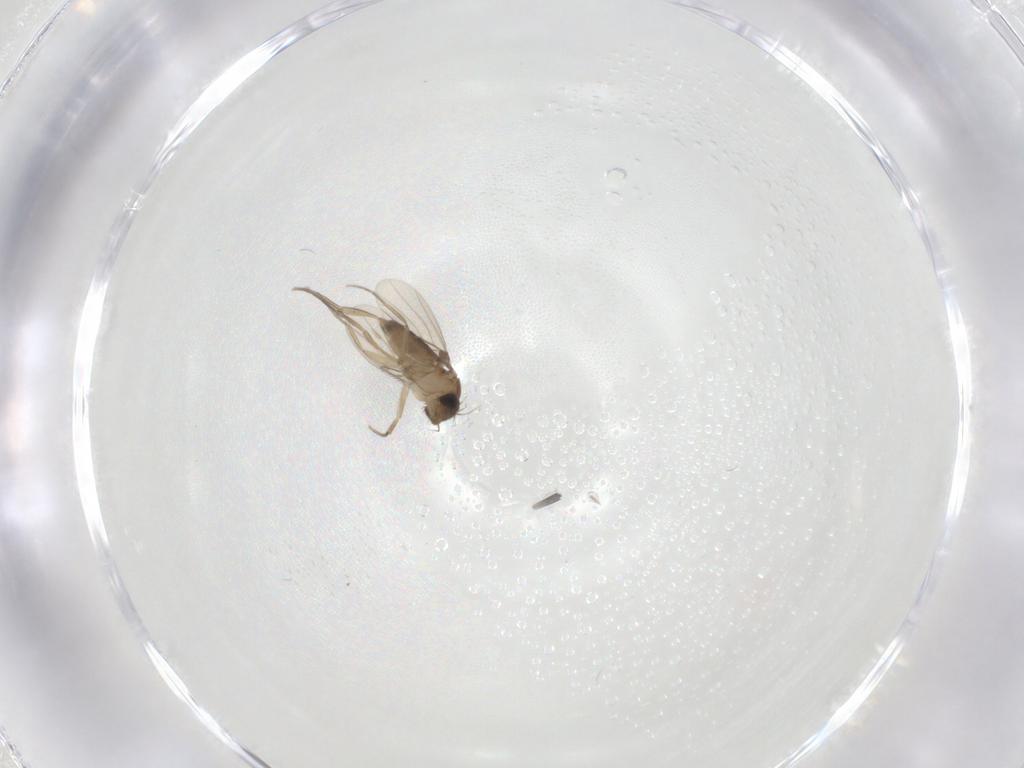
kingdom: Animalia
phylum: Arthropoda
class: Insecta
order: Diptera
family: Phoridae
